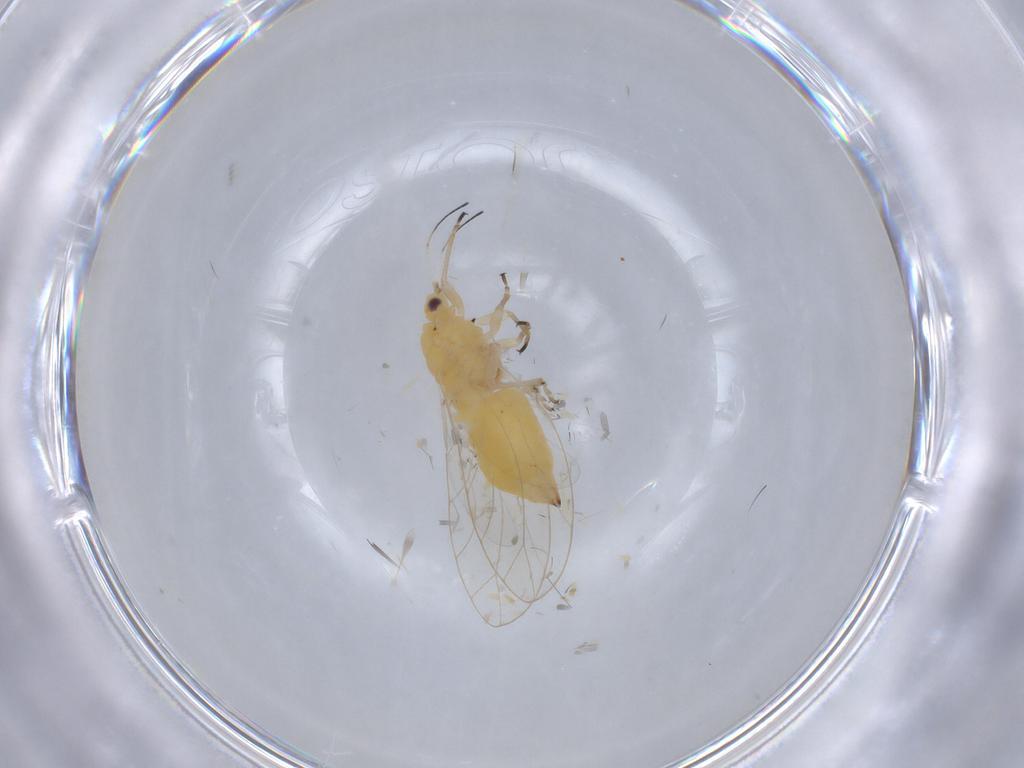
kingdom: Animalia
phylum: Arthropoda
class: Insecta
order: Hemiptera
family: Triozidae
